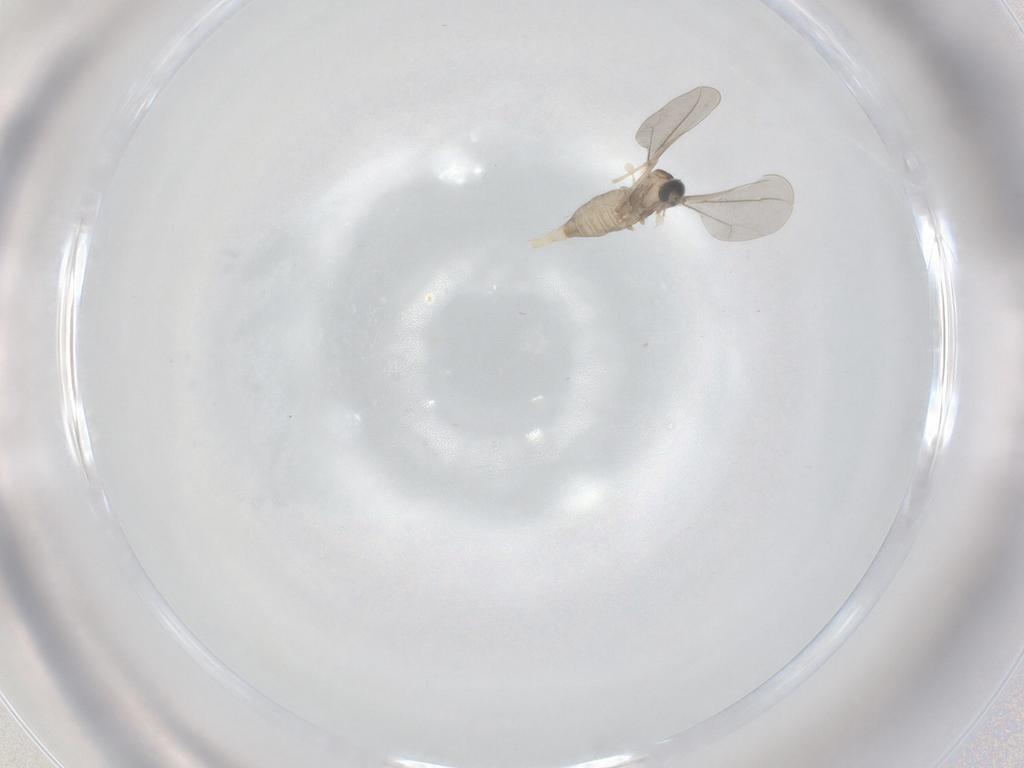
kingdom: Animalia
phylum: Arthropoda
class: Insecta
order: Diptera
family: Cecidomyiidae
